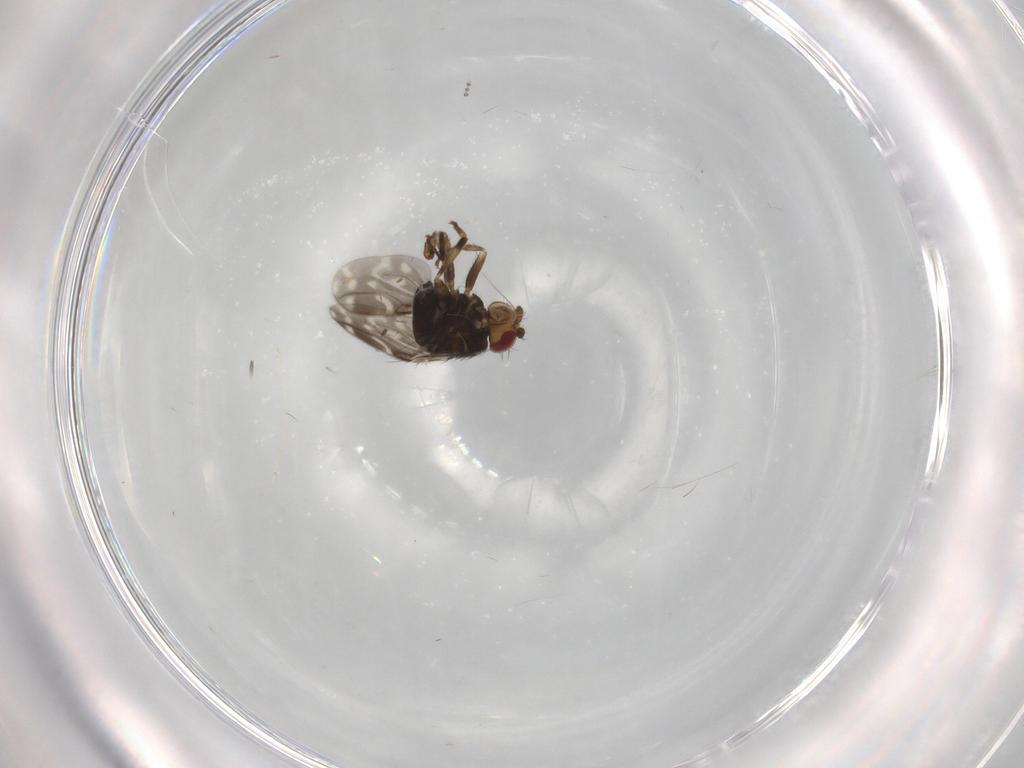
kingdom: Animalia
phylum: Arthropoda
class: Insecta
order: Diptera
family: Sphaeroceridae
